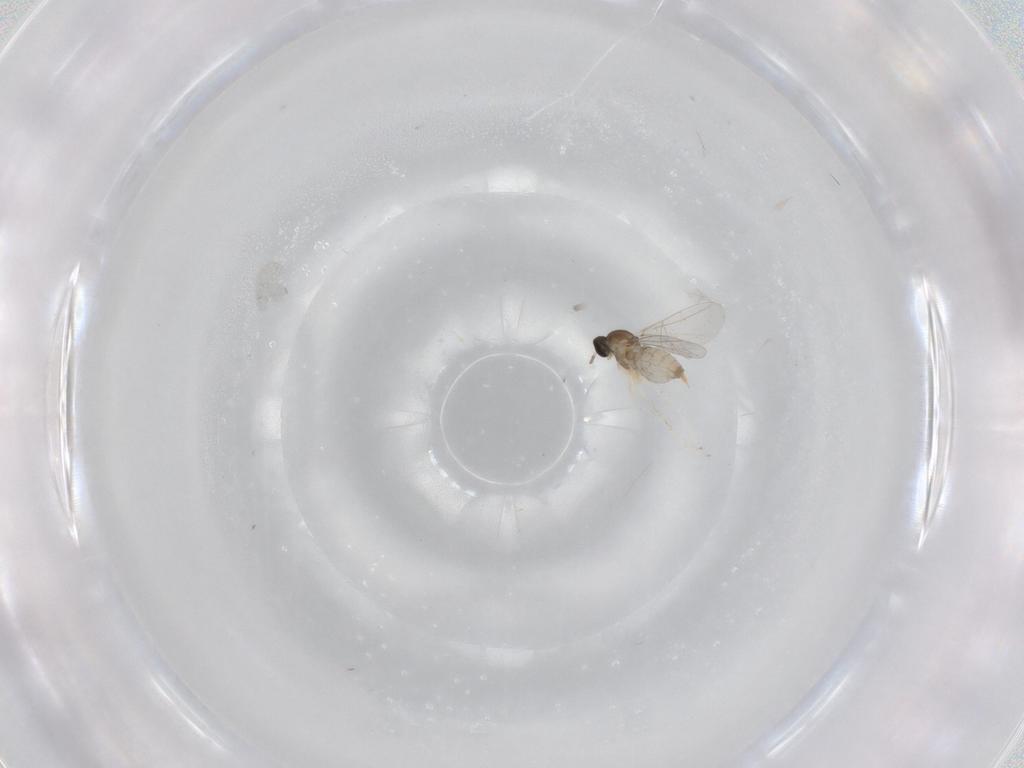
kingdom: Animalia
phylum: Arthropoda
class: Insecta
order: Diptera
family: Cecidomyiidae
